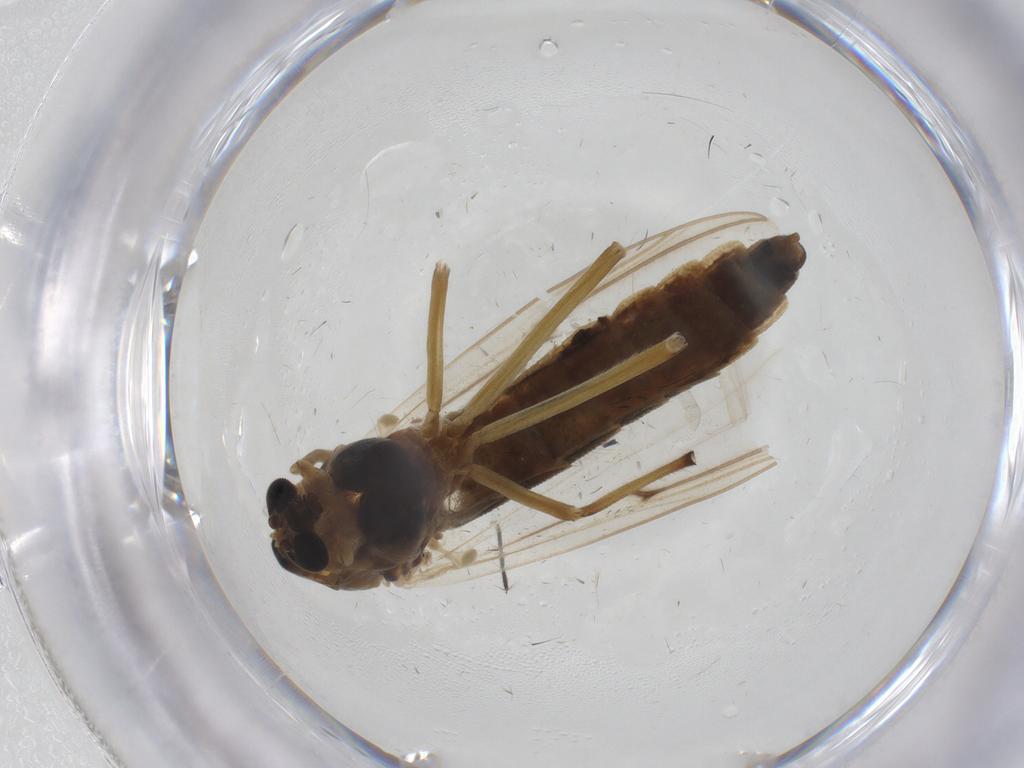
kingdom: Animalia
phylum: Arthropoda
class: Insecta
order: Diptera
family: Chironomidae
